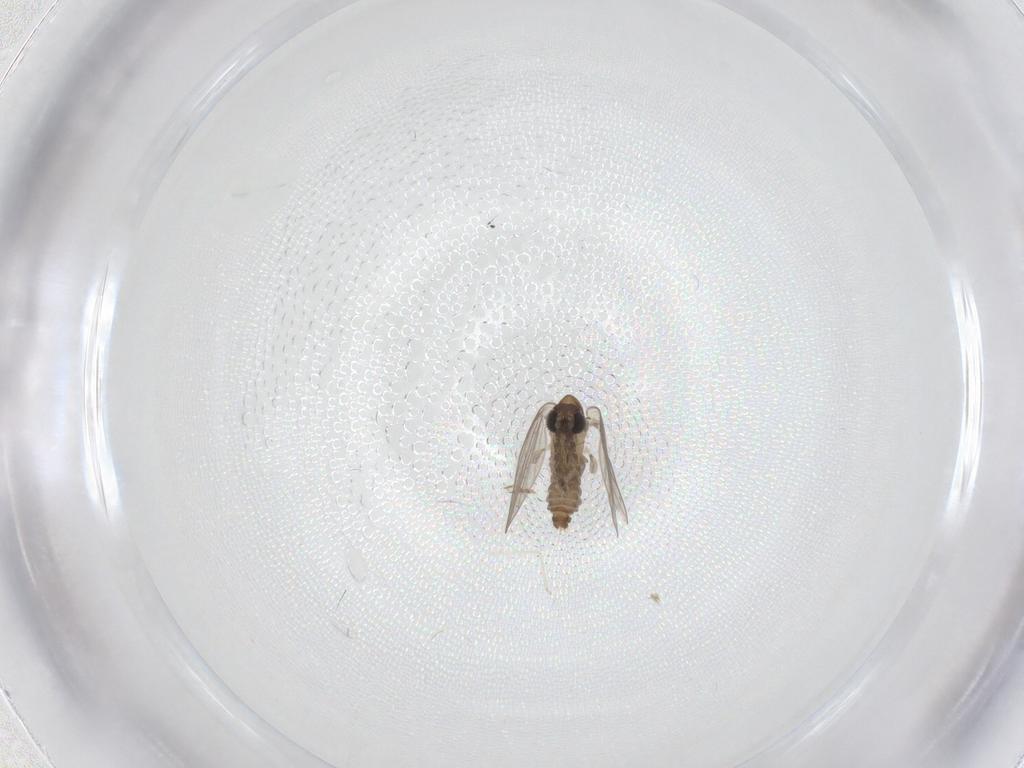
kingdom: Animalia
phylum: Arthropoda
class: Insecta
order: Diptera
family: Ceratopogonidae
